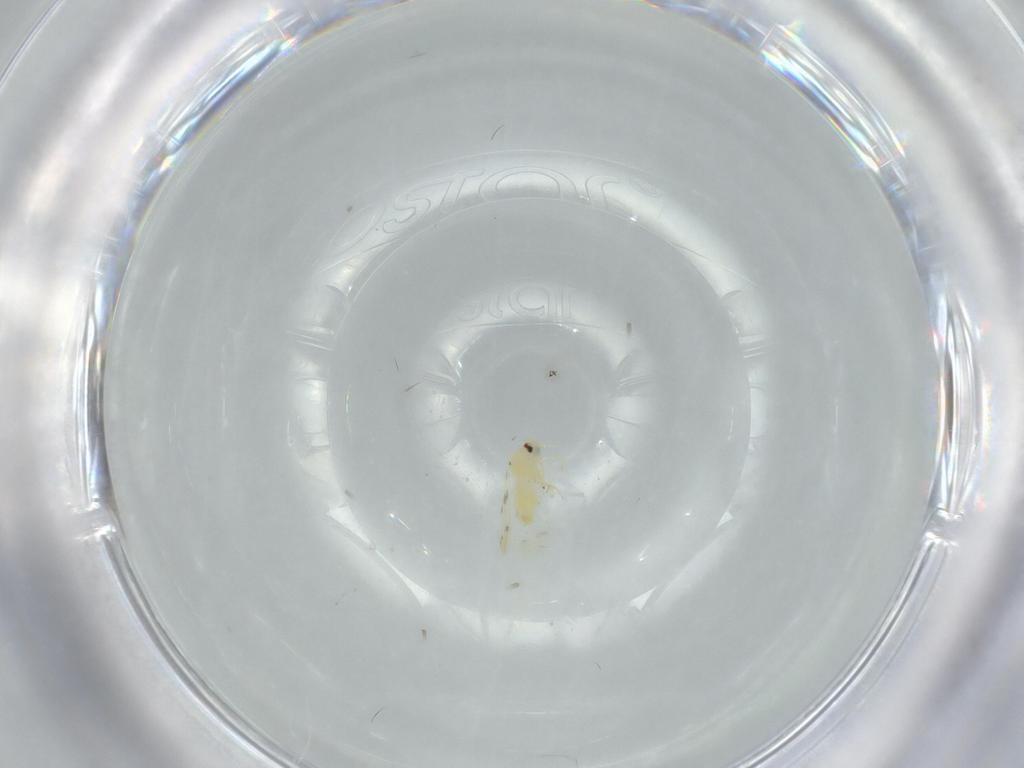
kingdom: Animalia
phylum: Arthropoda
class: Insecta
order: Hemiptera
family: Aleyrodidae
